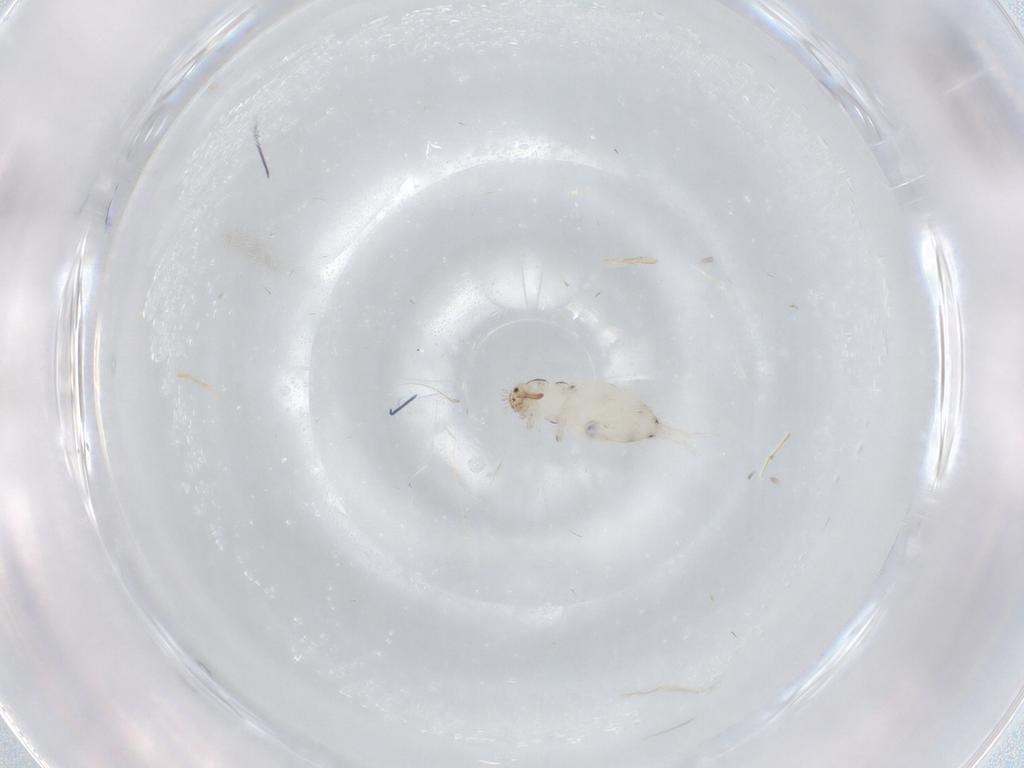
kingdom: Animalia
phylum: Arthropoda
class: Collembola
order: Entomobryomorpha
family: Entomobryidae
